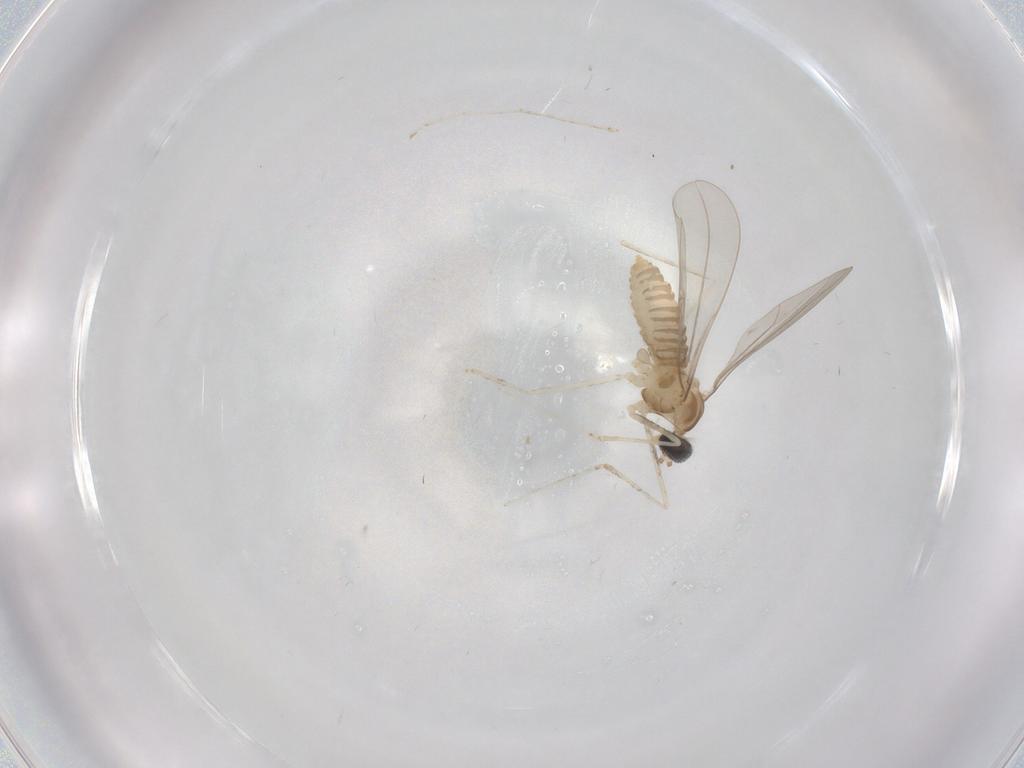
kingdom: Animalia
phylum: Arthropoda
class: Insecta
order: Diptera
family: Cecidomyiidae
